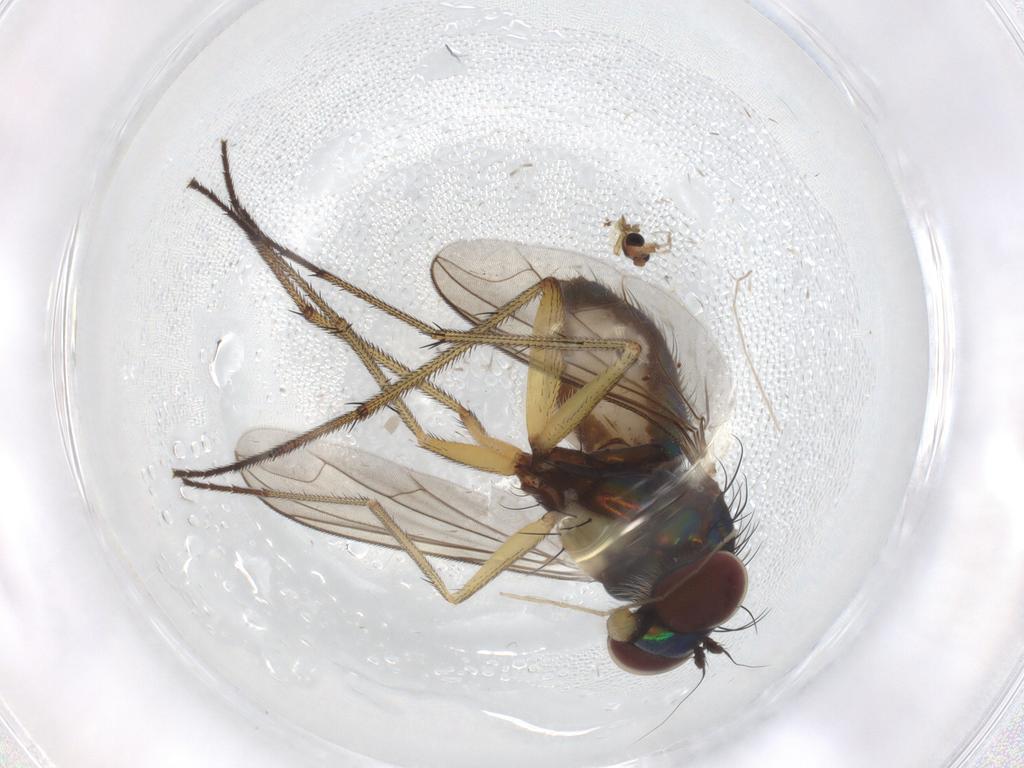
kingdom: Animalia
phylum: Arthropoda
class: Insecta
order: Diptera
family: Dolichopodidae
